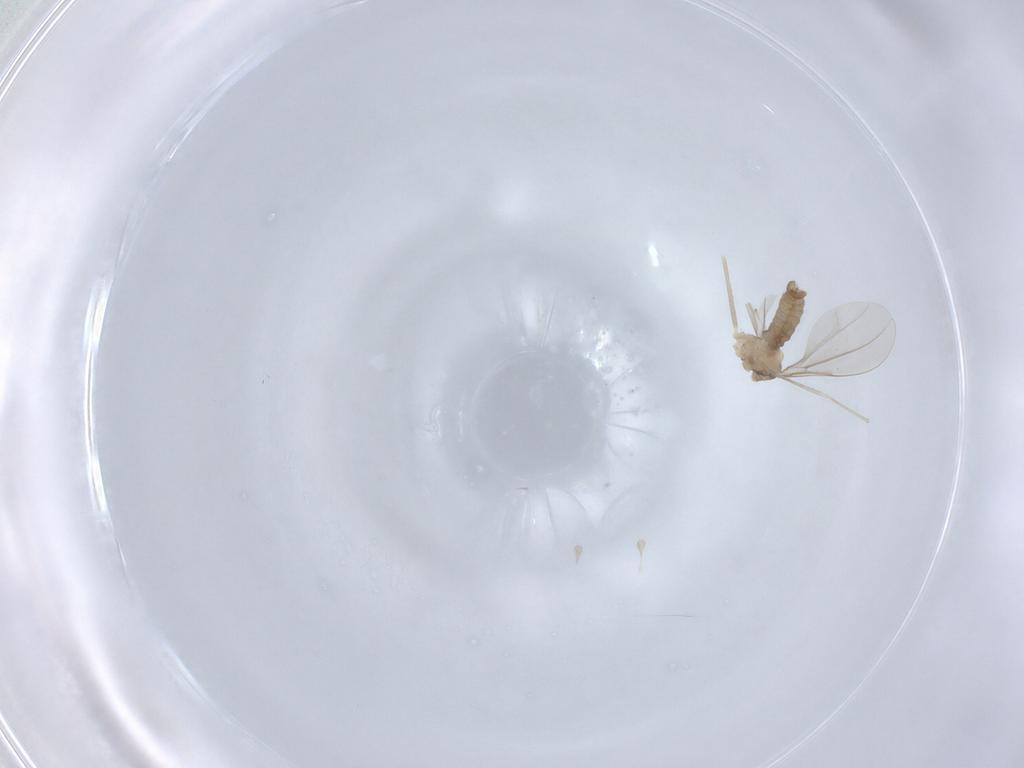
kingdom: Animalia
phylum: Arthropoda
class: Insecta
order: Diptera
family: Cecidomyiidae
